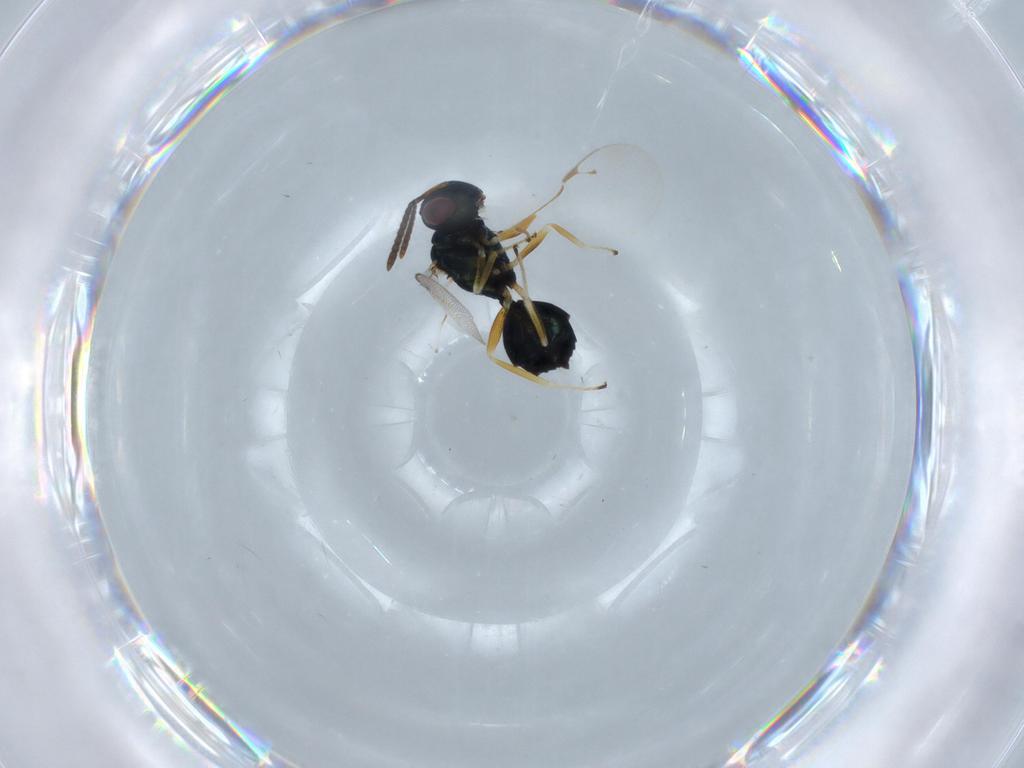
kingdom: Animalia
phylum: Arthropoda
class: Insecta
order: Hymenoptera
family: Pteromalidae
